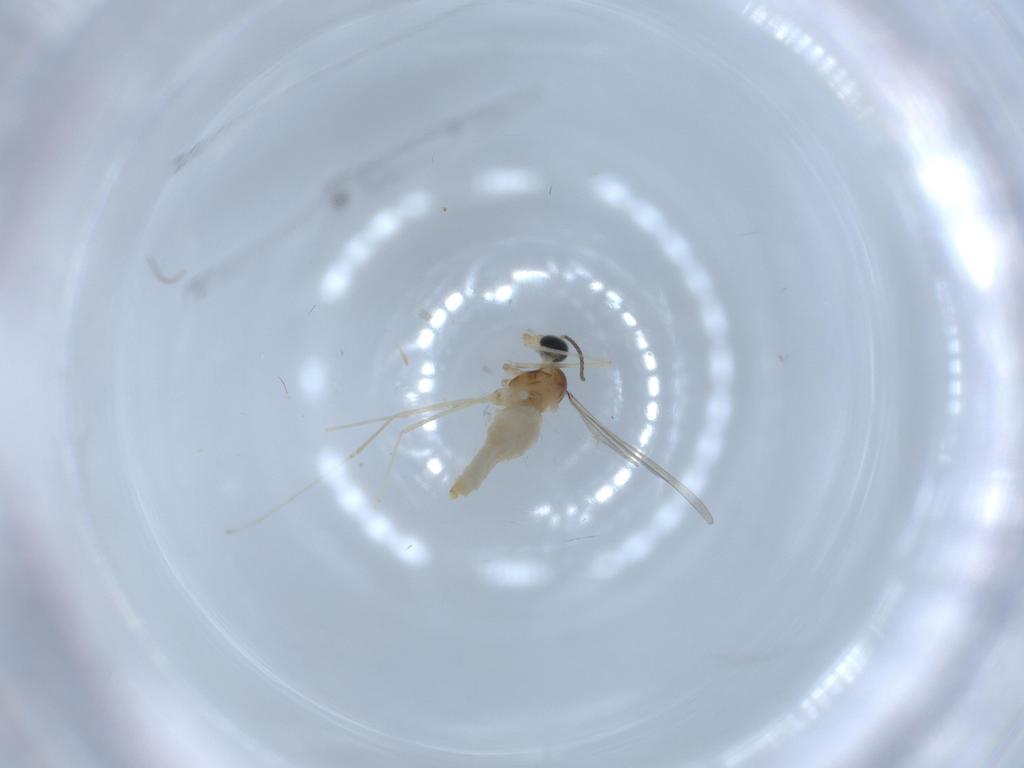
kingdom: Animalia
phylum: Arthropoda
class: Insecta
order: Diptera
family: Cecidomyiidae
